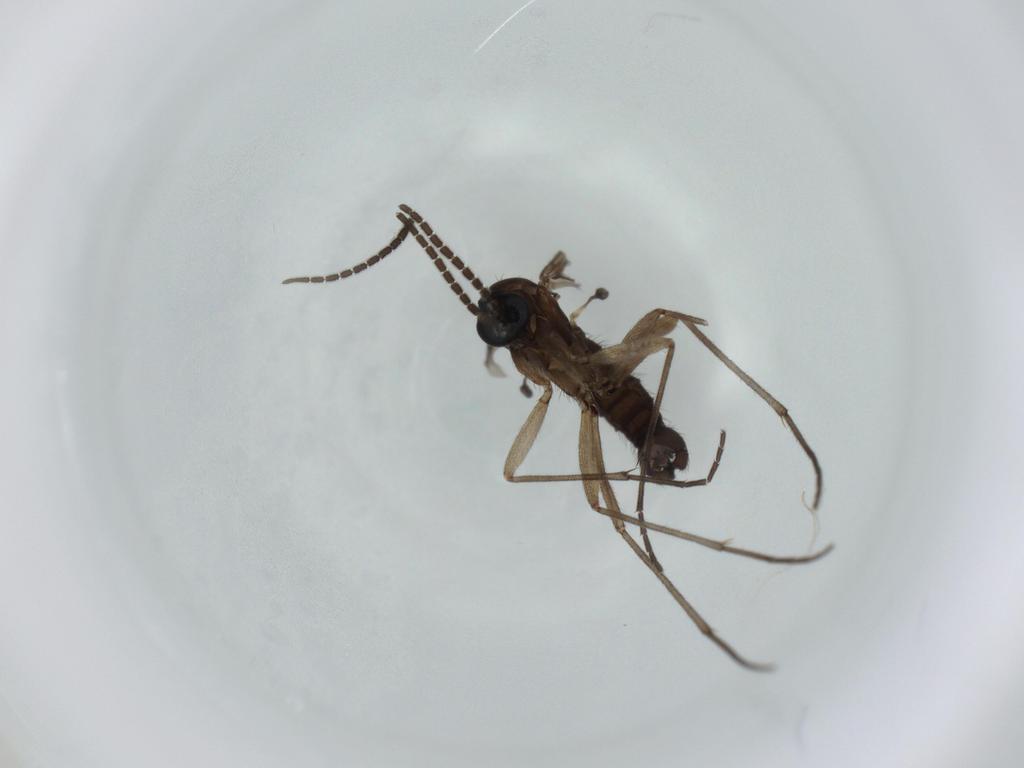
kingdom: Animalia
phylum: Arthropoda
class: Insecta
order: Diptera
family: Sciaridae
